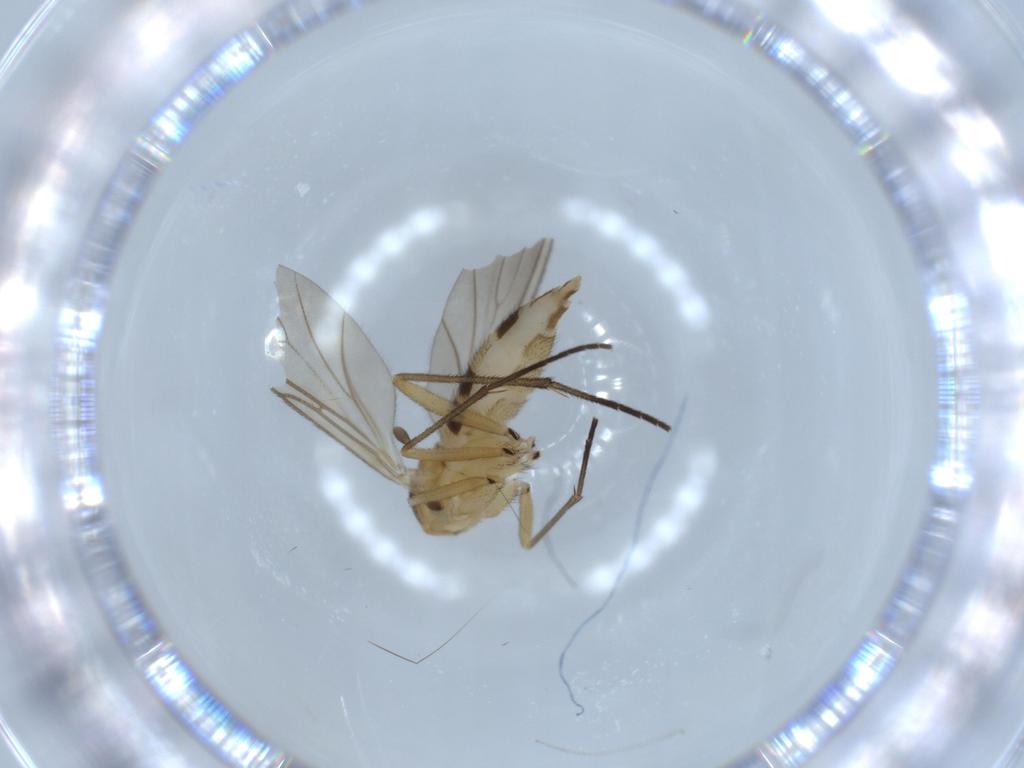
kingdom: Animalia
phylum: Arthropoda
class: Insecta
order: Diptera
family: Sciaridae
